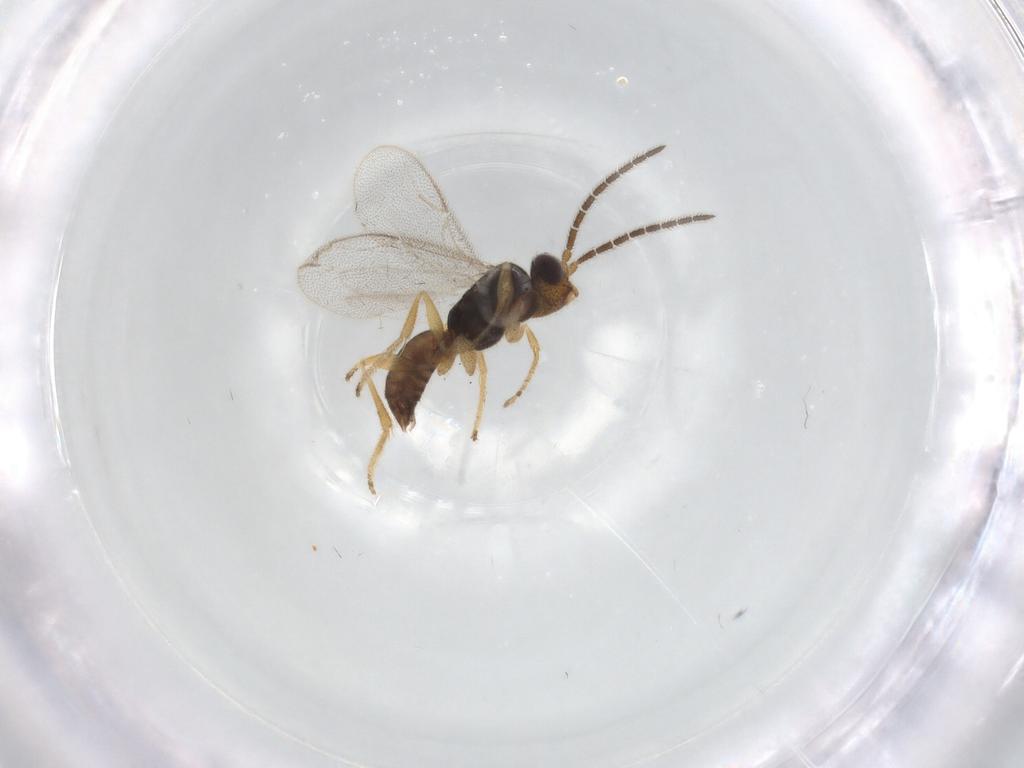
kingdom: Animalia
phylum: Arthropoda
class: Insecta
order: Hymenoptera
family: Dryinidae
